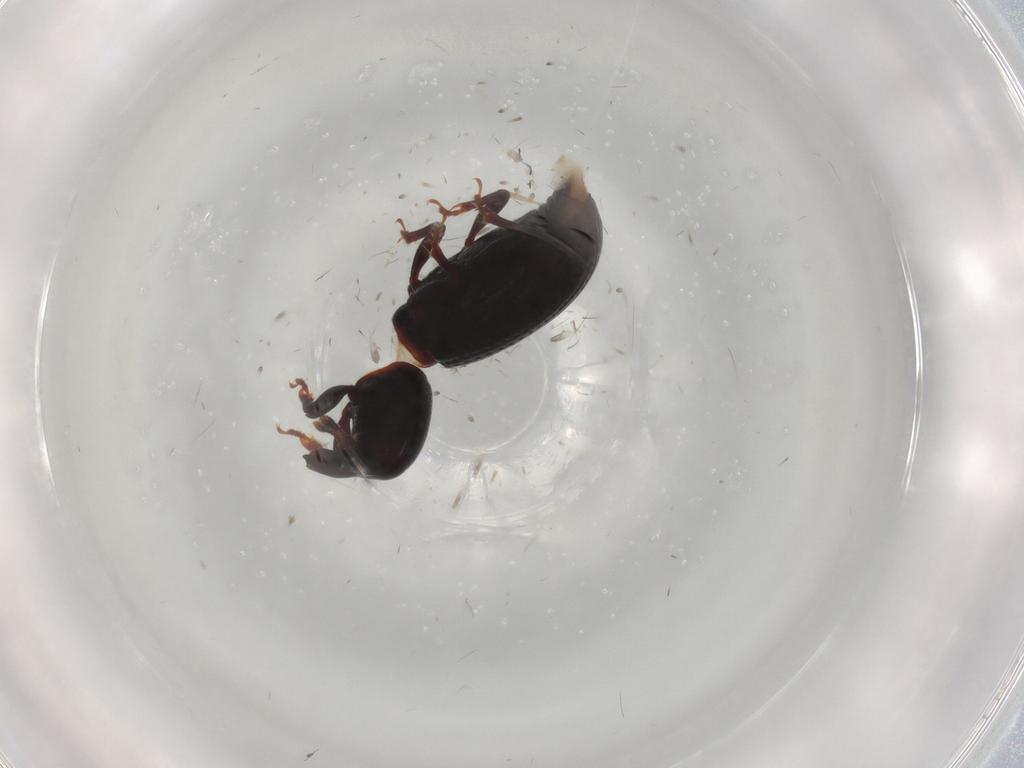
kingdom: Animalia
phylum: Arthropoda
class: Insecta
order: Coleoptera
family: Curculionidae
